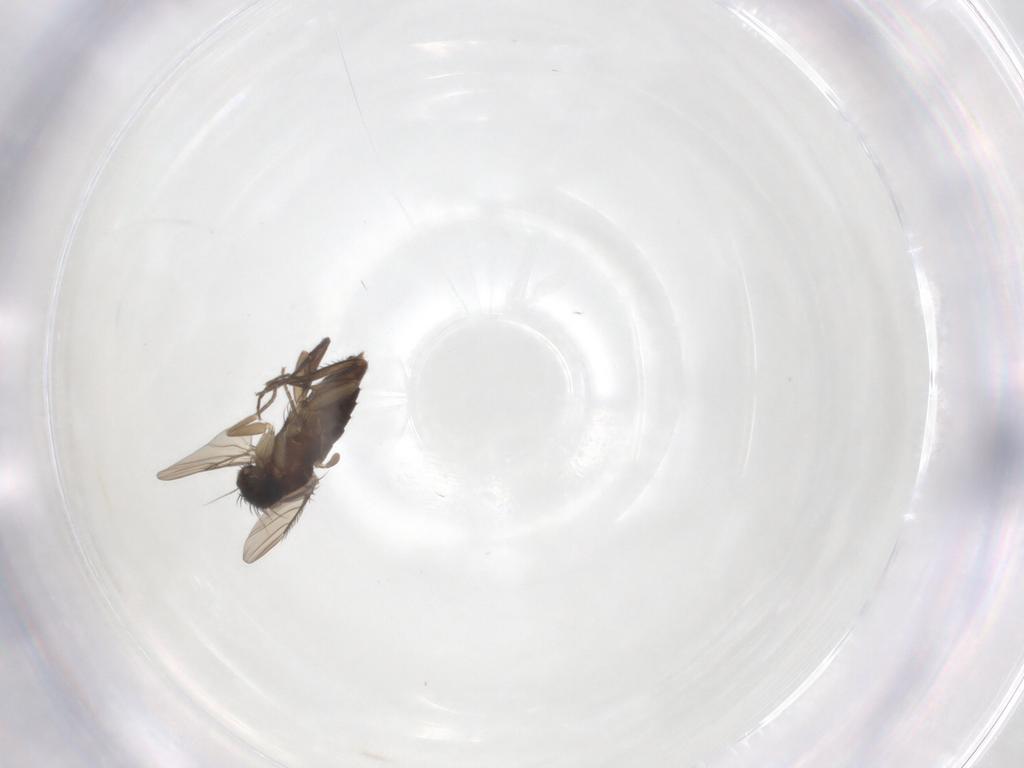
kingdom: Animalia
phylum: Arthropoda
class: Insecta
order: Diptera
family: Phoridae
